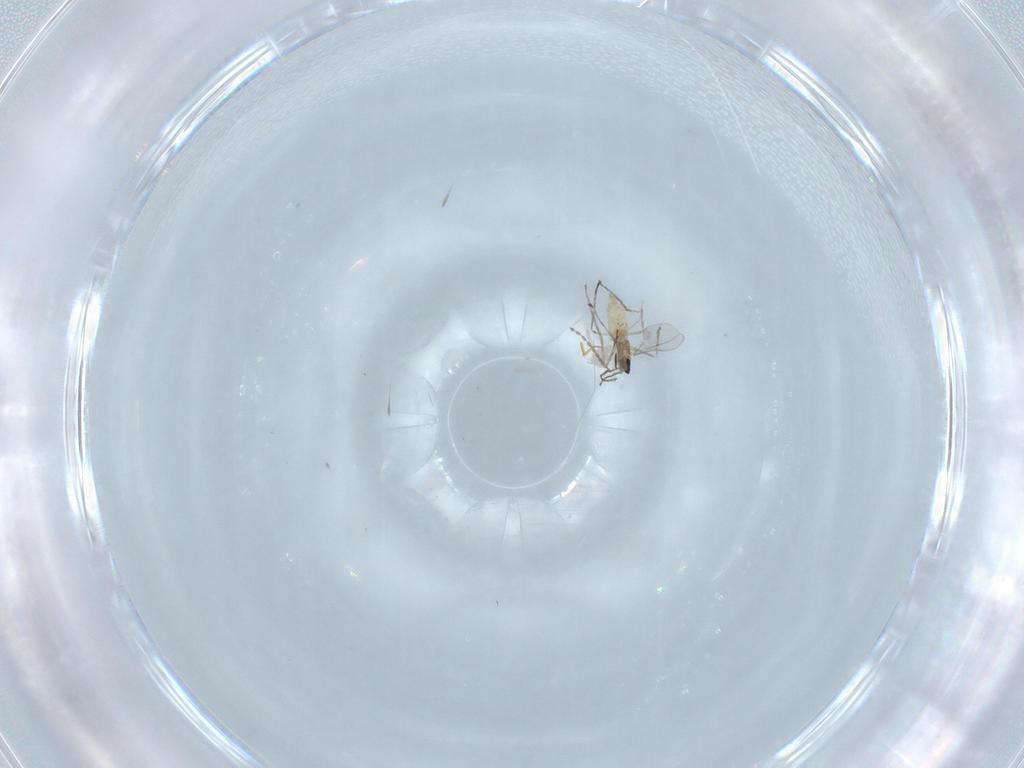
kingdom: Animalia
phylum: Arthropoda
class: Insecta
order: Diptera
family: Cecidomyiidae
